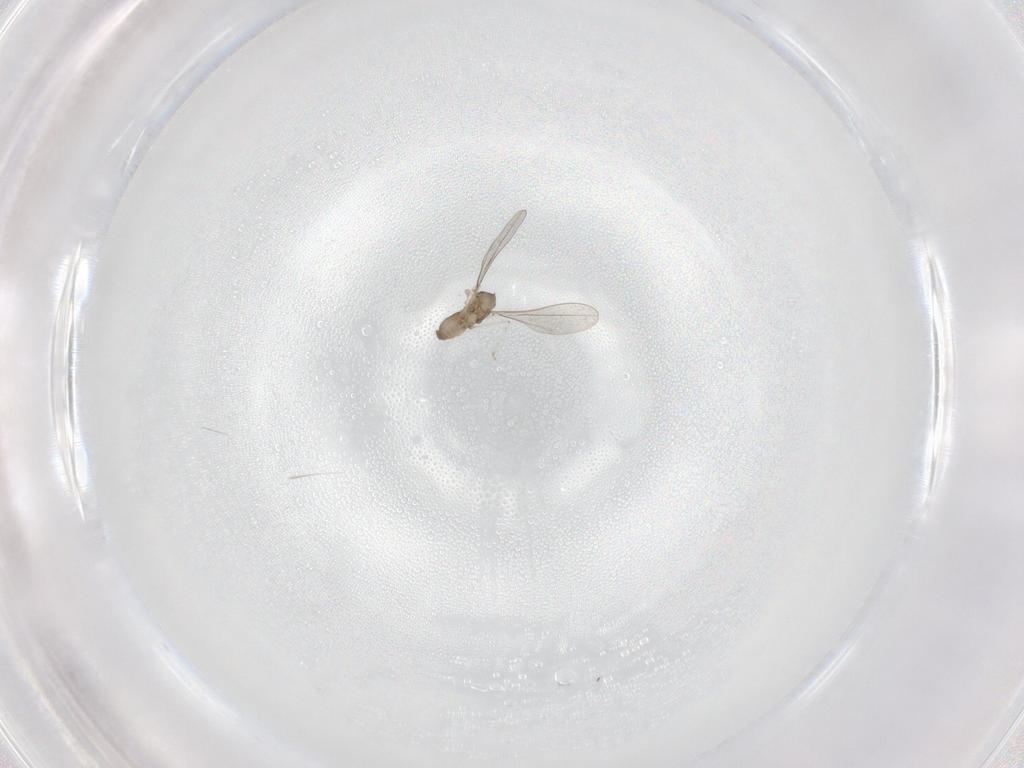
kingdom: Animalia
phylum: Arthropoda
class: Insecta
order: Diptera
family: Cecidomyiidae
